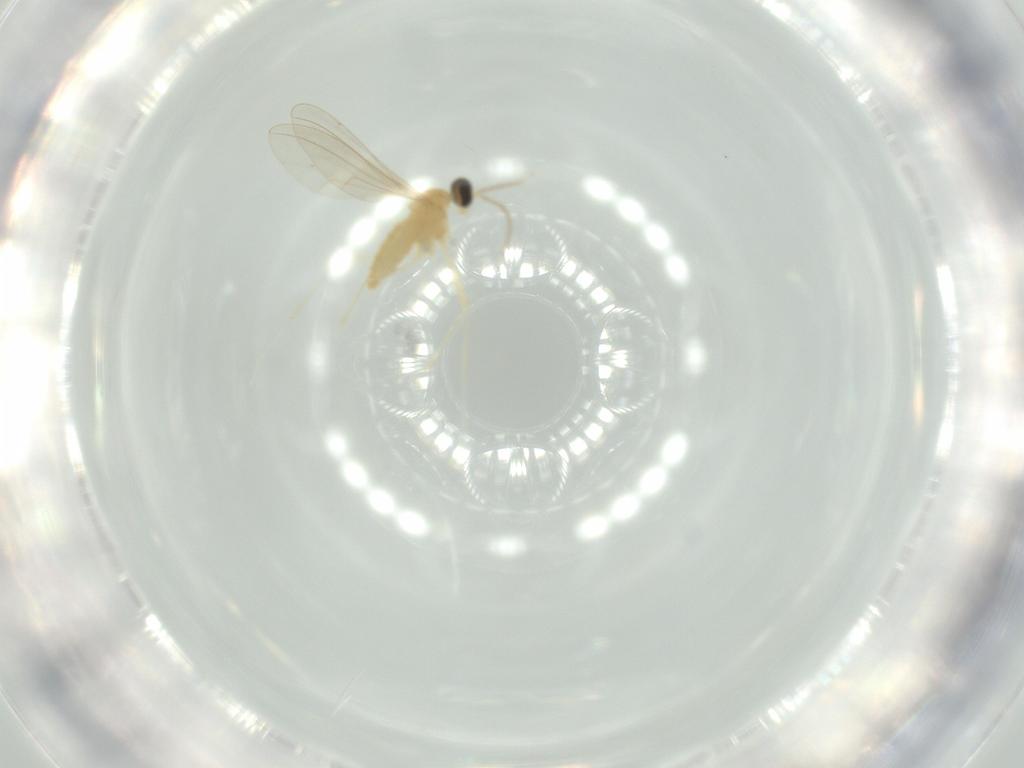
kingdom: Animalia
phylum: Arthropoda
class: Insecta
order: Diptera
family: Cecidomyiidae
